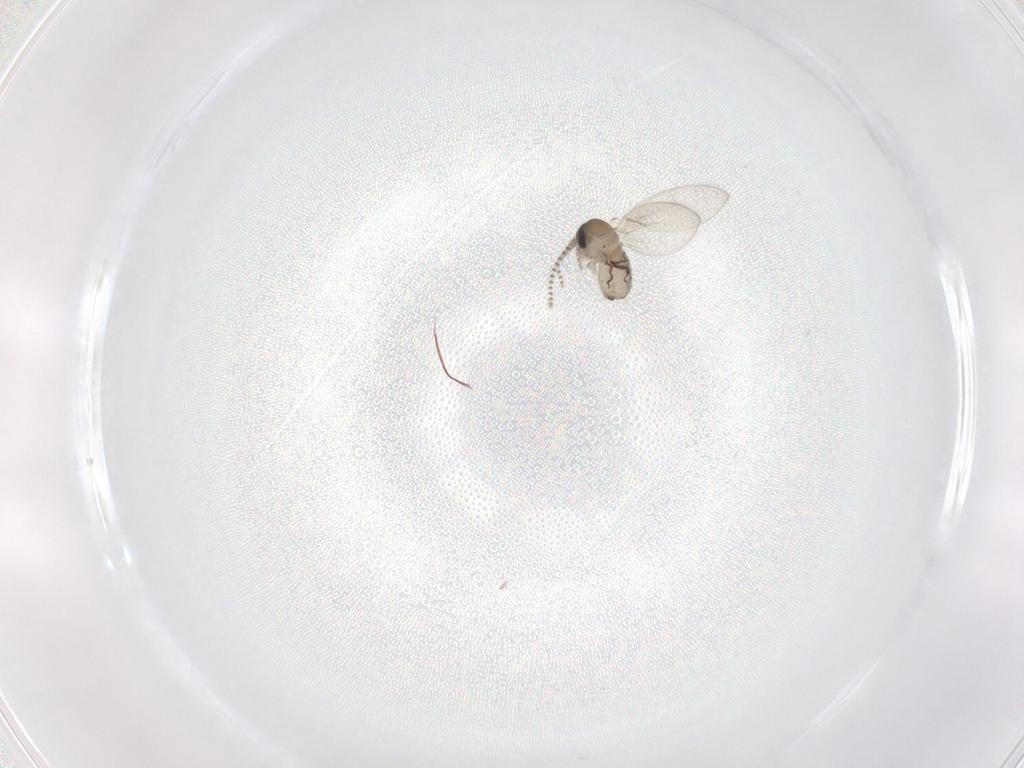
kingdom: Animalia
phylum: Arthropoda
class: Insecta
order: Diptera
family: Psychodidae
